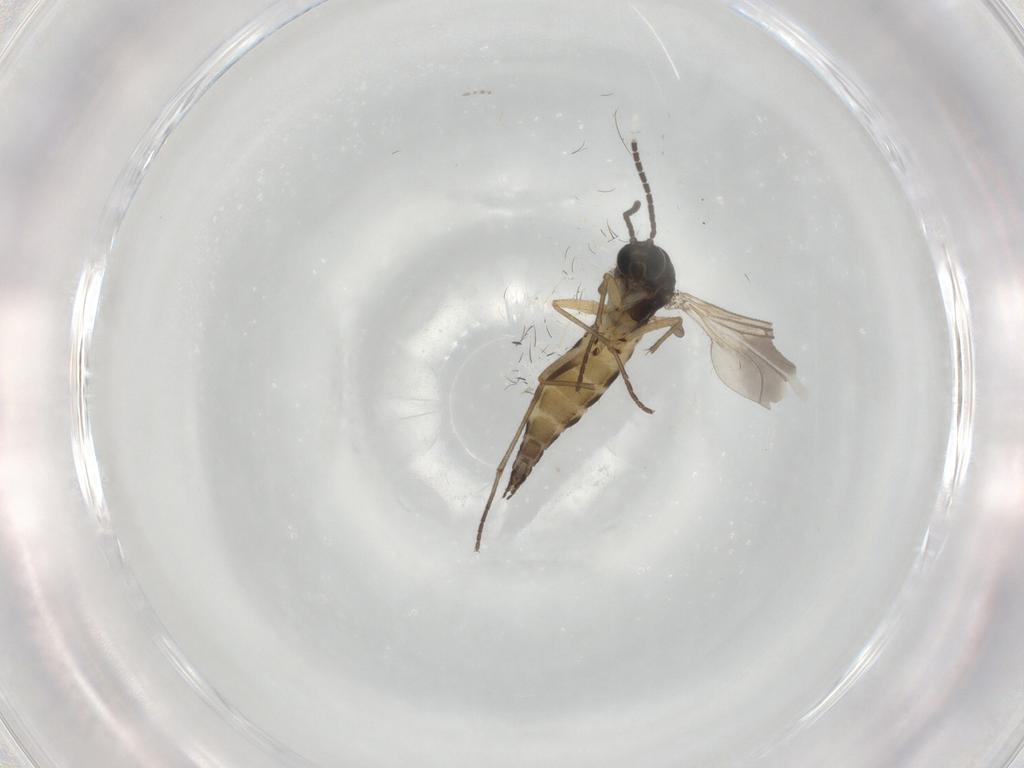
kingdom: Animalia
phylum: Arthropoda
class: Insecta
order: Diptera
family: Sciaridae
